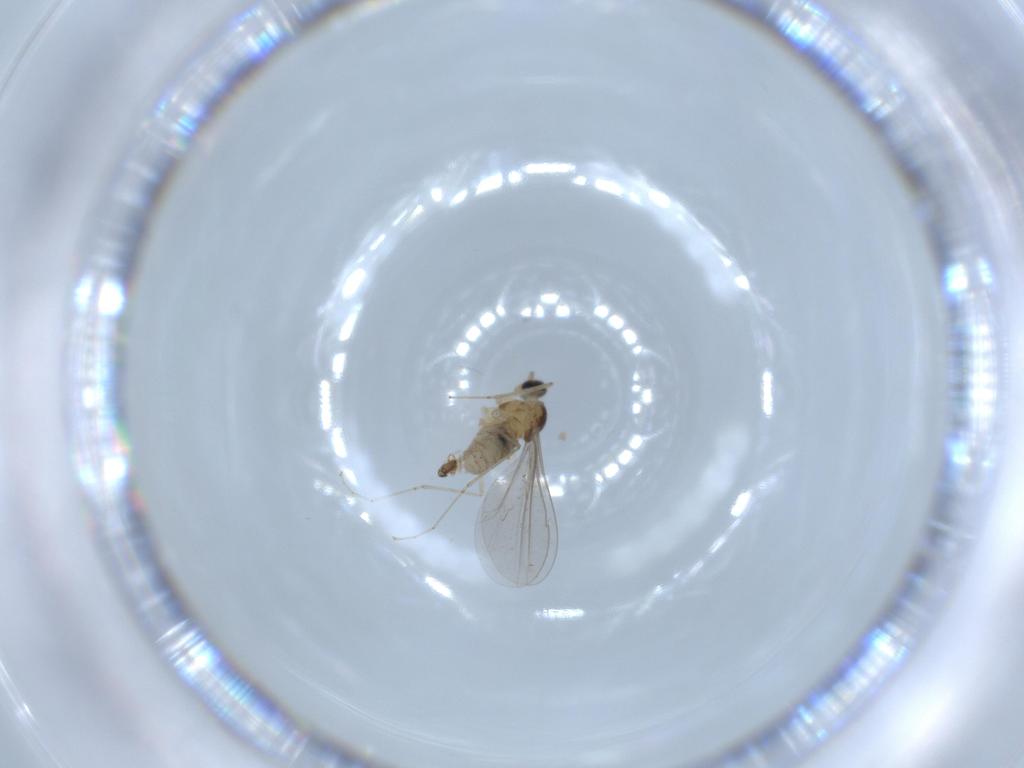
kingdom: Animalia
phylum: Arthropoda
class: Insecta
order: Diptera
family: Cecidomyiidae
